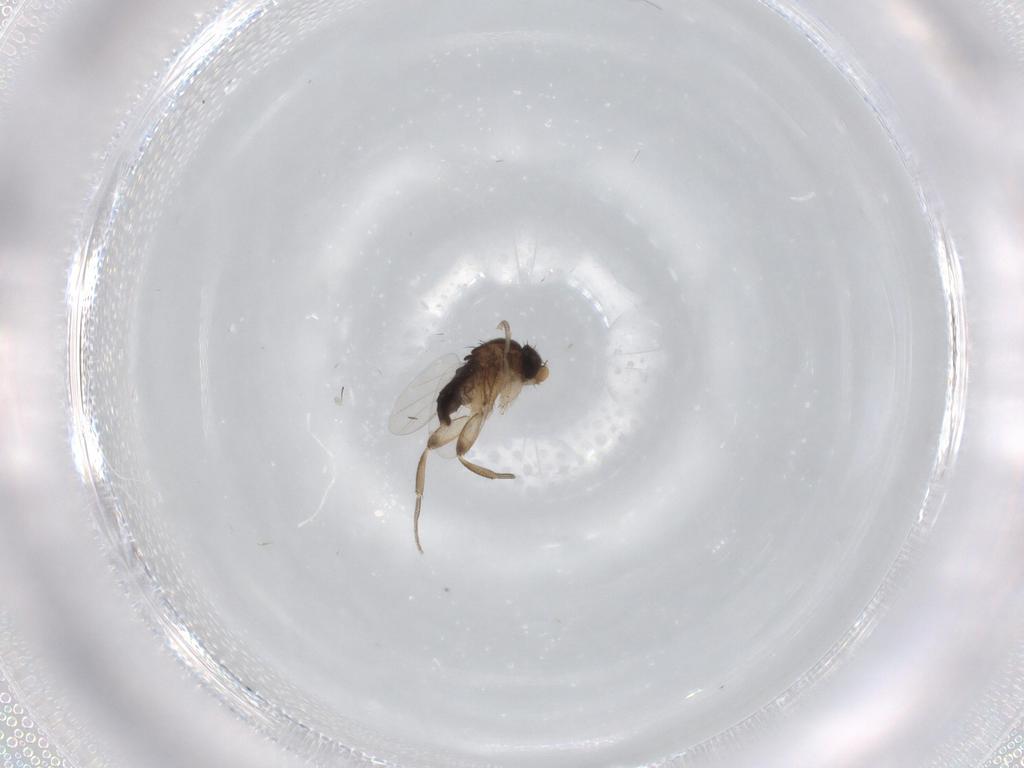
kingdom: Animalia
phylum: Arthropoda
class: Insecta
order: Diptera
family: Phoridae
